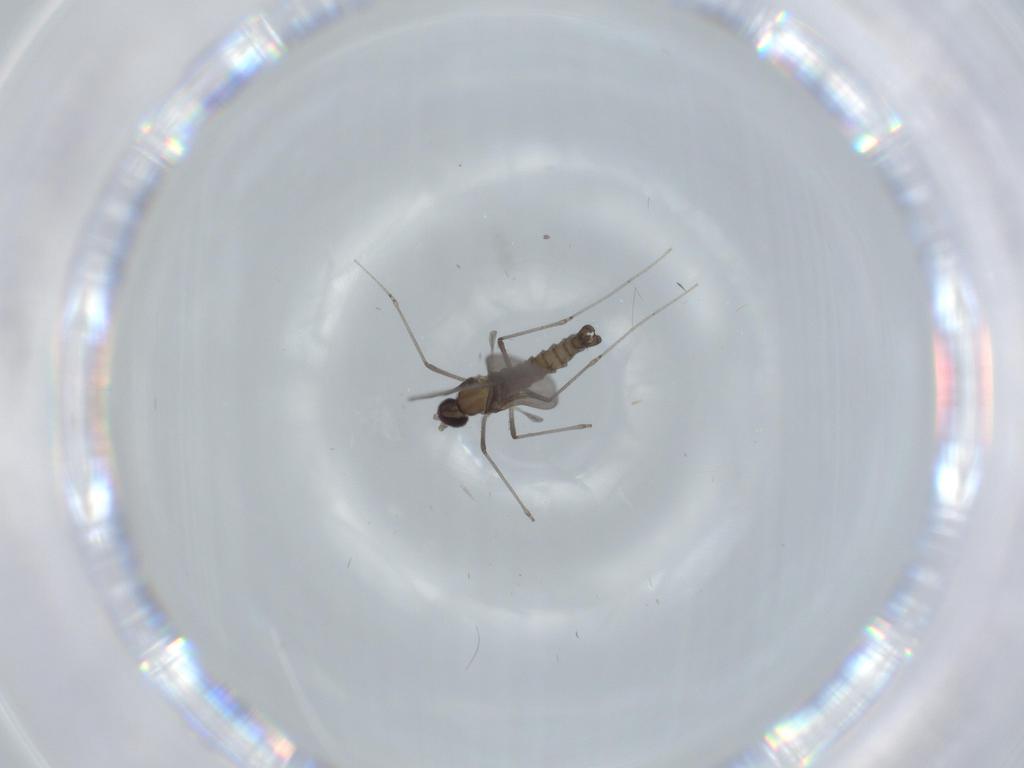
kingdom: Animalia
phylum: Arthropoda
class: Insecta
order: Diptera
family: Cecidomyiidae
